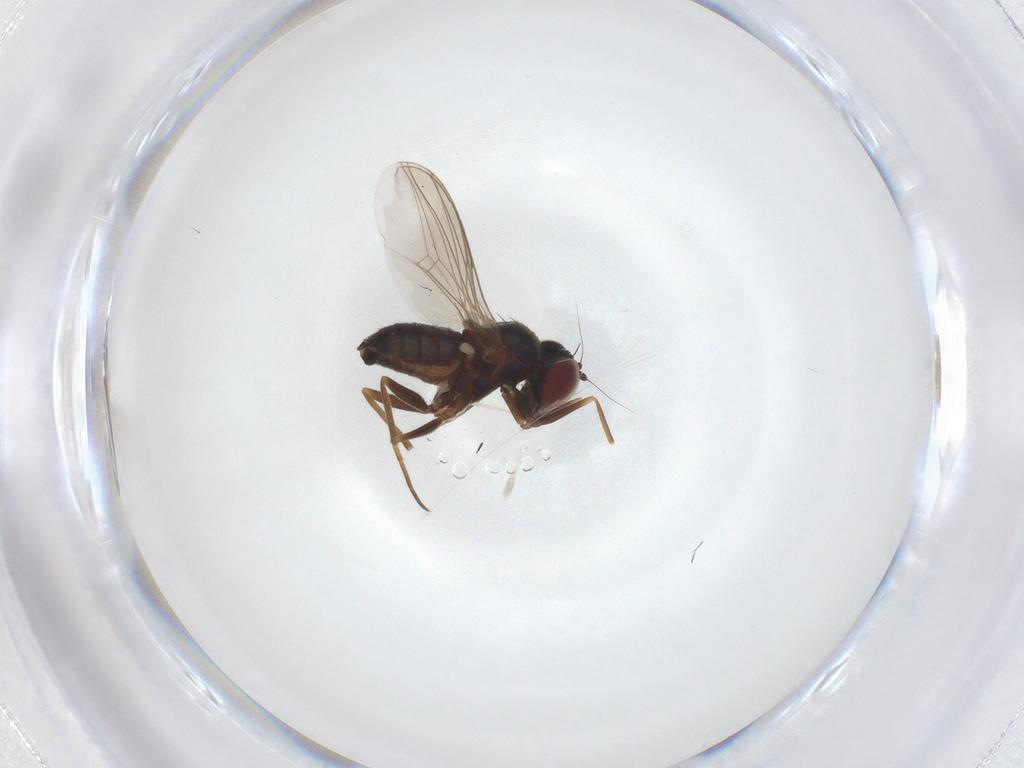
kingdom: Animalia
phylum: Arthropoda
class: Insecta
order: Diptera
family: Dolichopodidae
